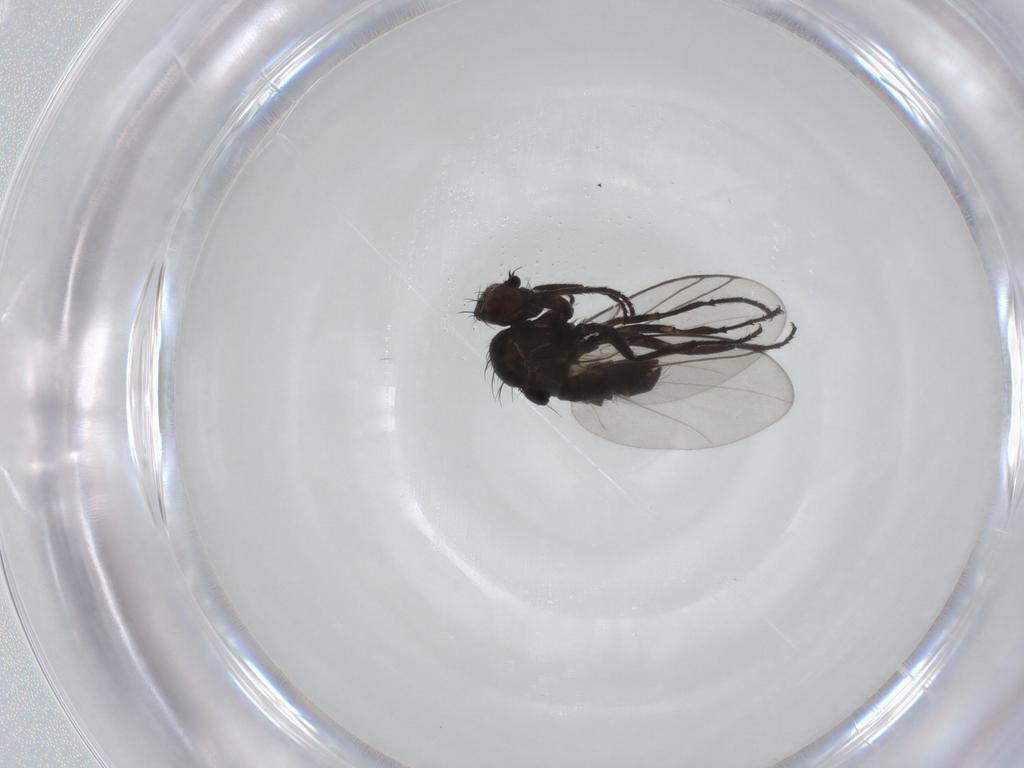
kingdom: Animalia
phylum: Arthropoda
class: Insecta
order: Diptera
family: Agromyzidae
